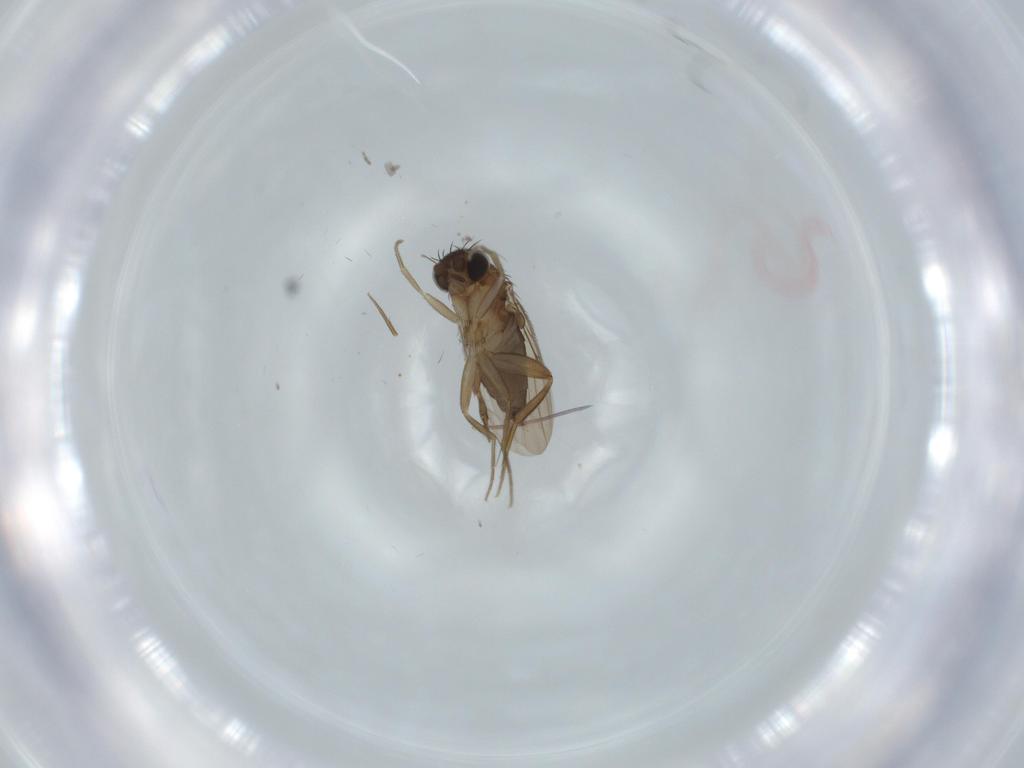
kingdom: Animalia
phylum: Arthropoda
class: Insecta
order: Diptera
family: Phoridae
